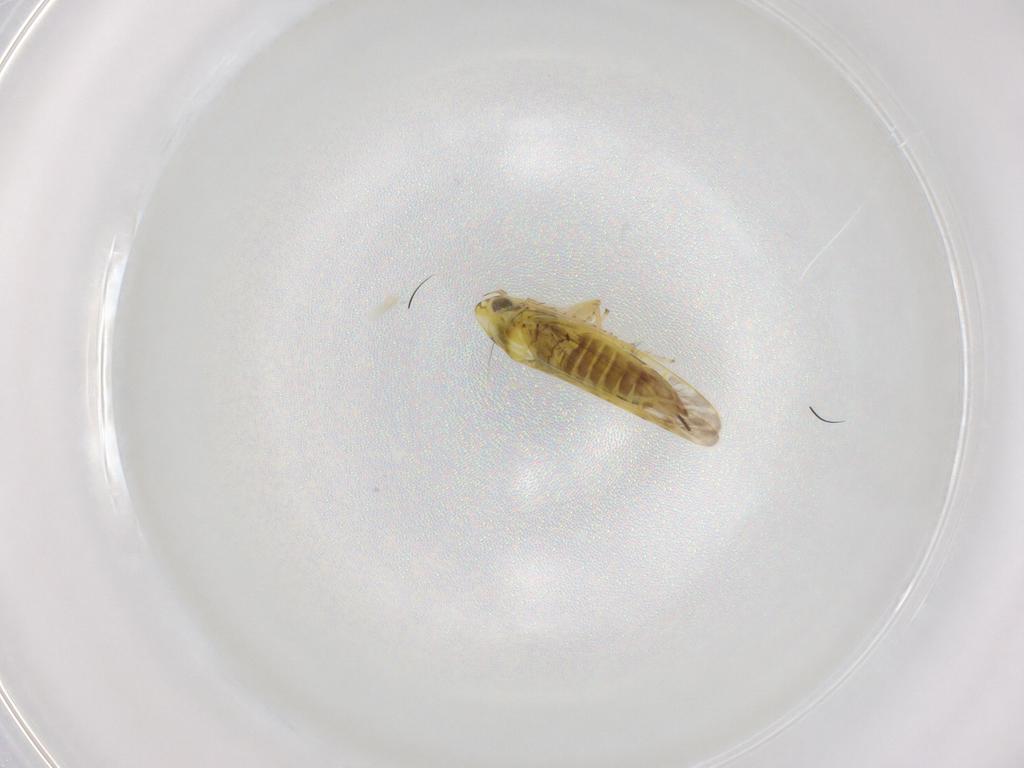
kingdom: Animalia
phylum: Arthropoda
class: Insecta
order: Hemiptera
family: Cicadellidae
